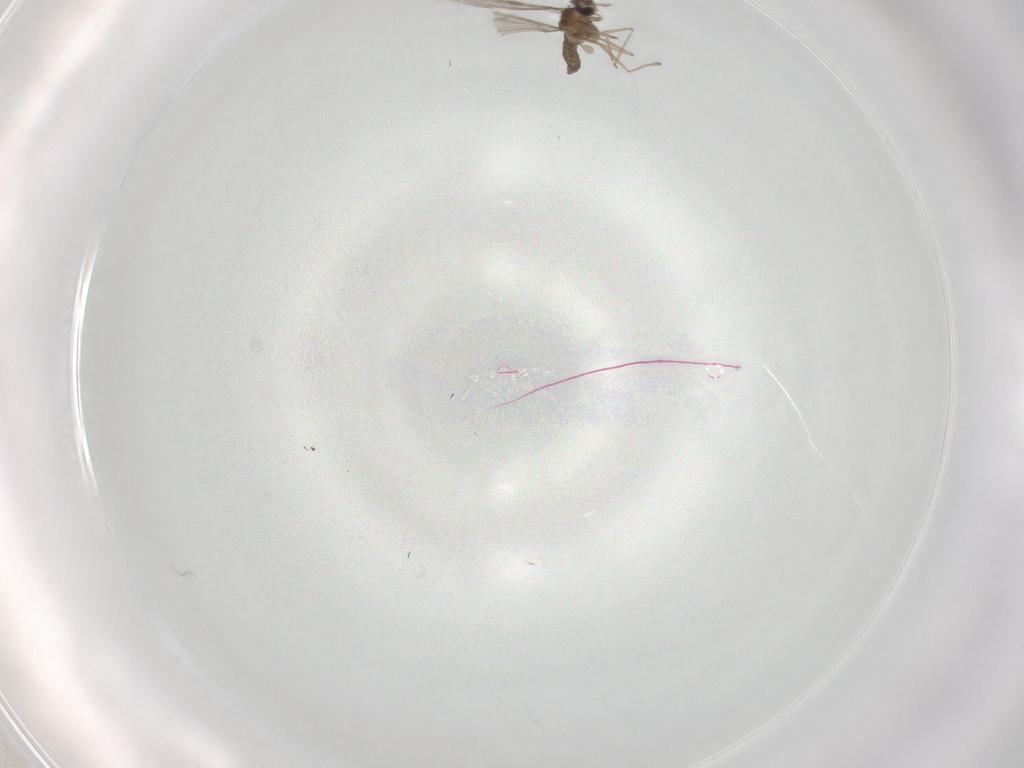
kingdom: Animalia
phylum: Arthropoda
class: Insecta
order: Diptera
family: Cecidomyiidae
